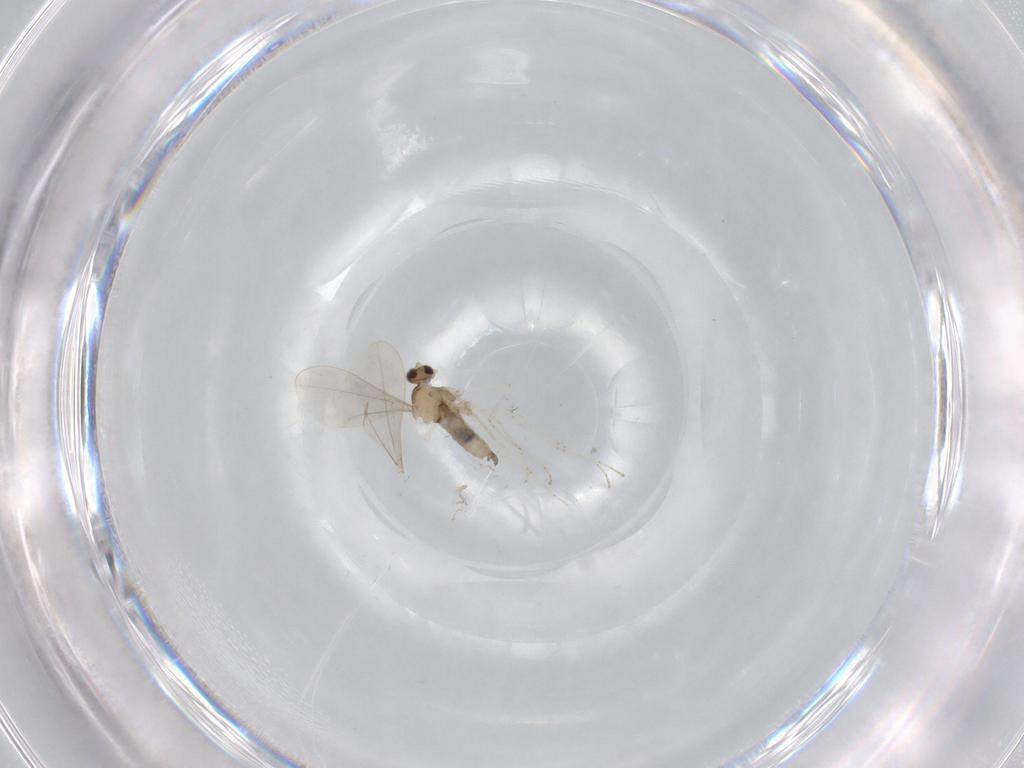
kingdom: Animalia
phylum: Arthropoda
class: Insecta
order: Diptera
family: Cecidomyiidae
